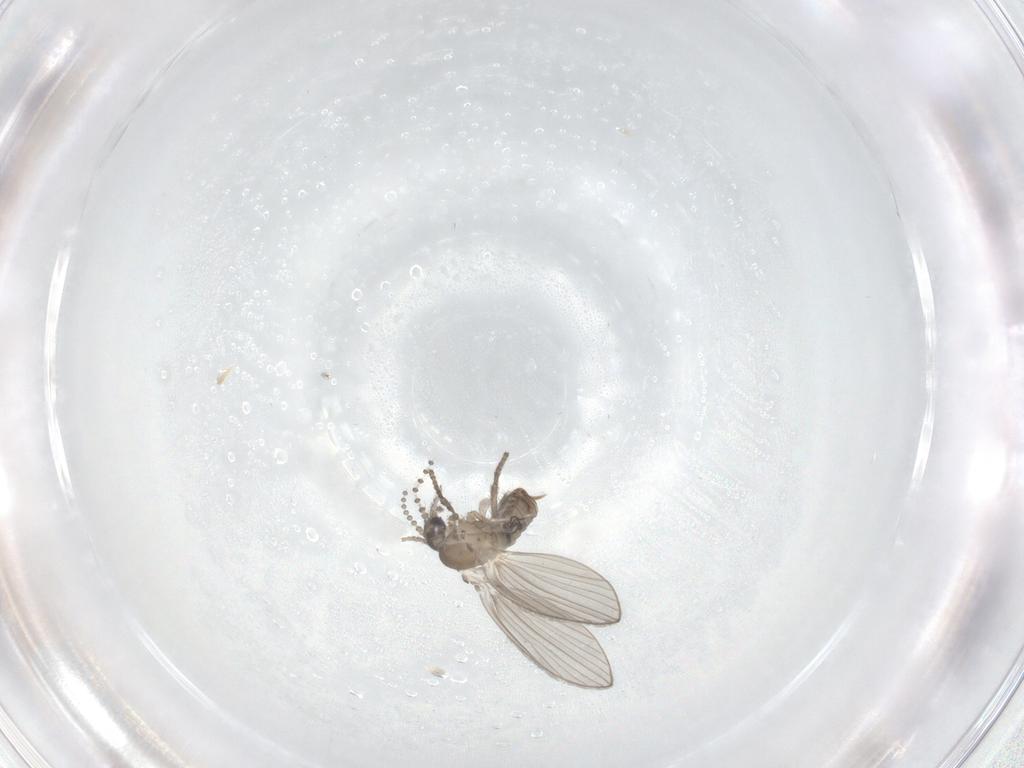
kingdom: Animalia
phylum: Arthropoda
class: Insecta
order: Diptera
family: Cecidomyiidae
